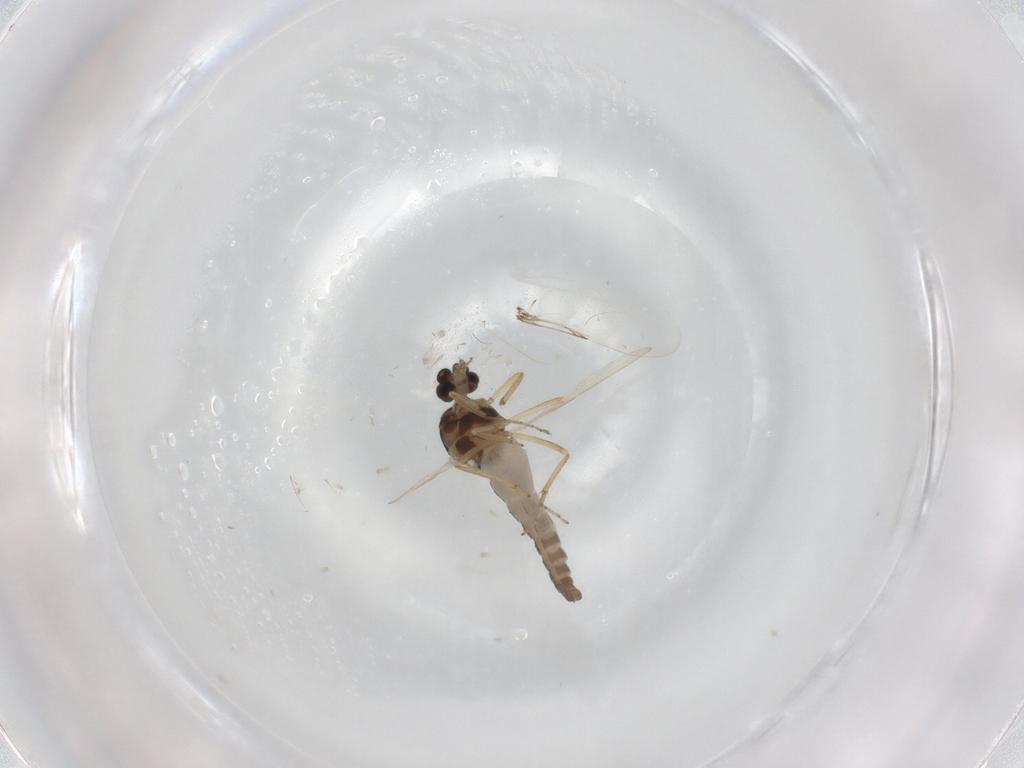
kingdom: Animalia
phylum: Arthropoda
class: Insecta
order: Diptera
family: Ceratopogonidae
